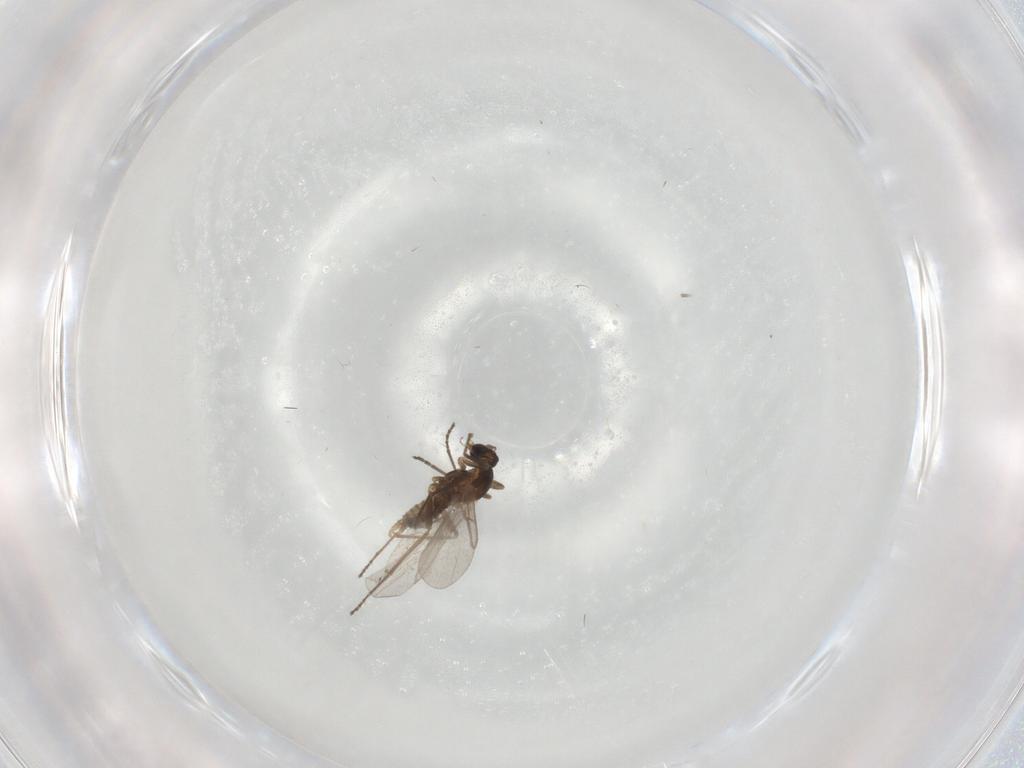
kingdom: Animalia
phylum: Arthropoda
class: Insecta
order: Diptera
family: Cecidomyiidae
